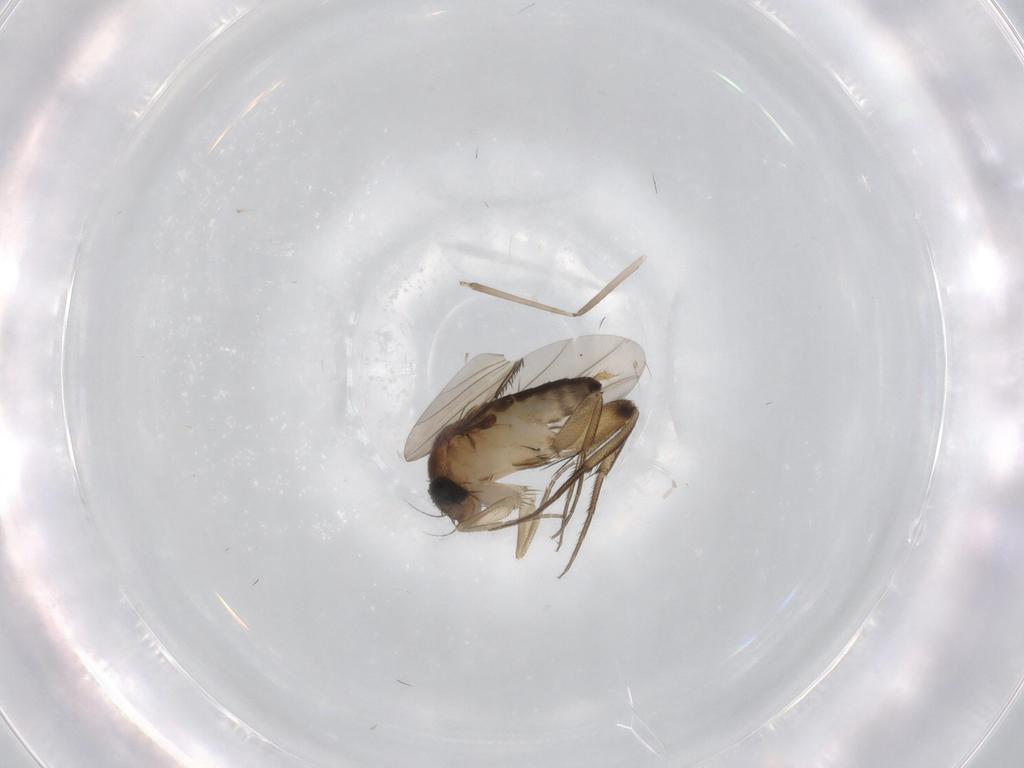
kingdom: Animalia
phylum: Arthropoda
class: Insecta
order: Diptera
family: Phoridae
